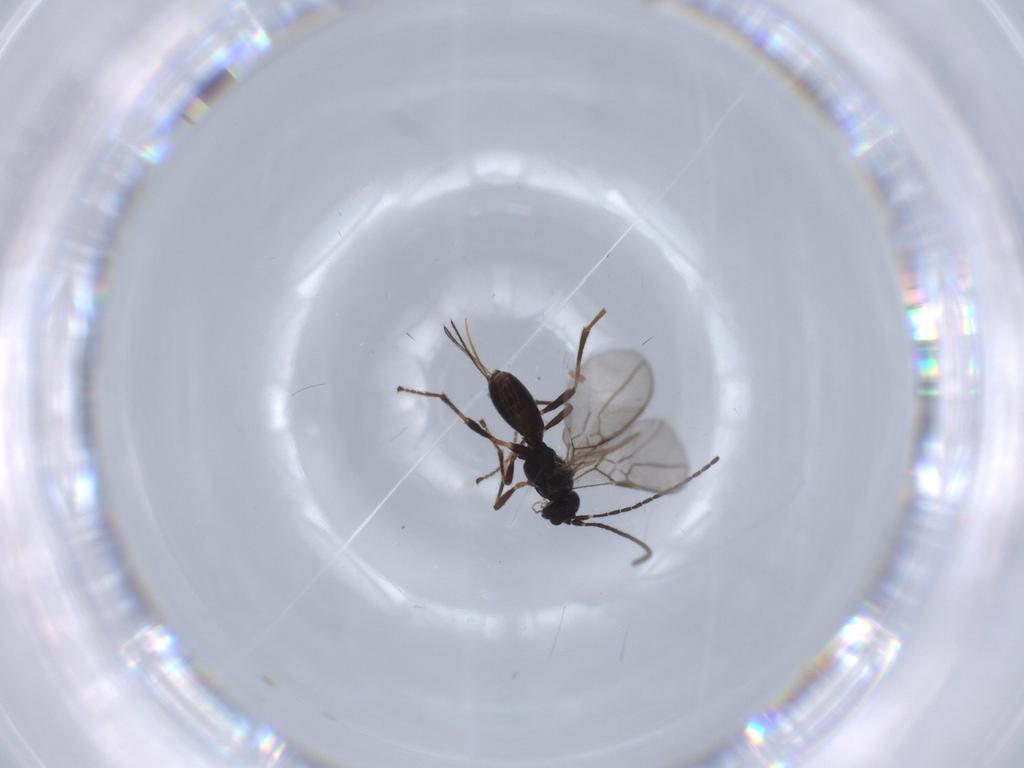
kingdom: Animalia
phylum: Arthropoda
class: Insecta
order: Hymenoptera
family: Braconidae
